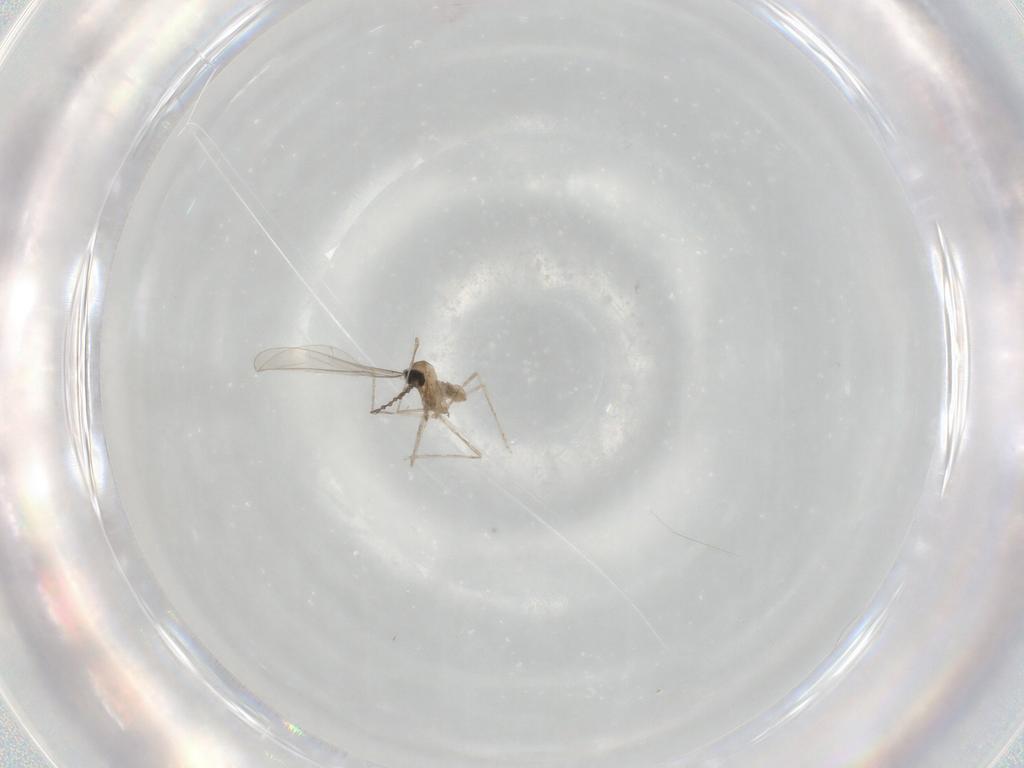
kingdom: Animalia
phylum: Arthropoda
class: Insecta
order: Diptera
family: Cecidomyiidae
